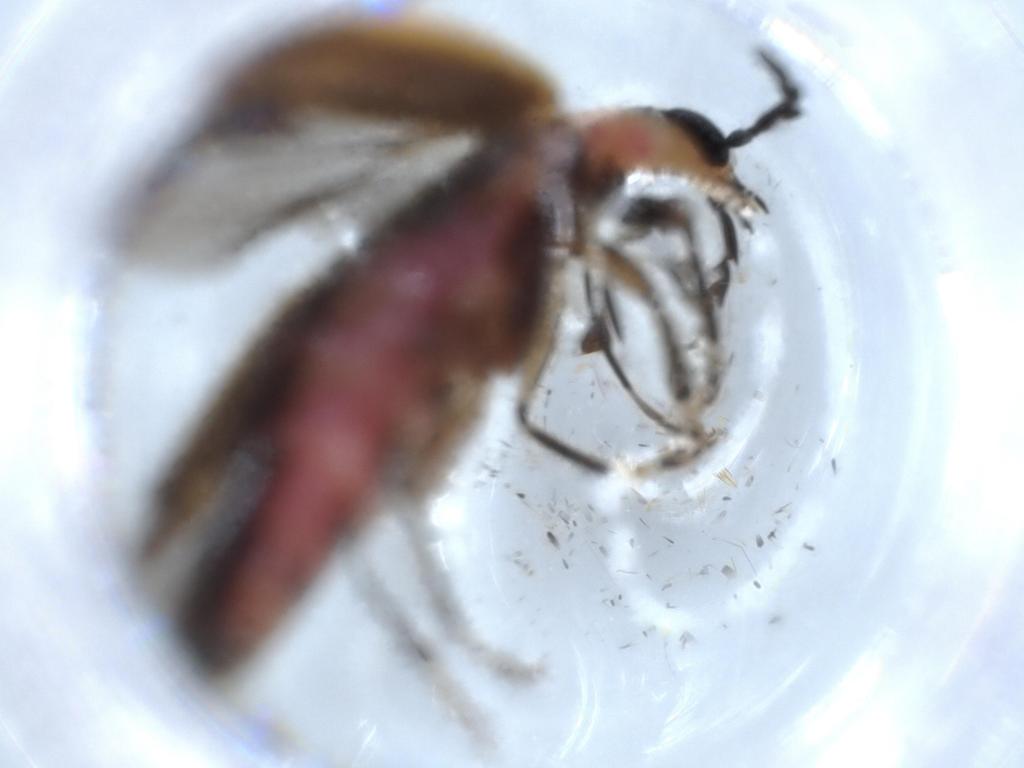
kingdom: Animalia
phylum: Arthropoda
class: Insecta
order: Coleoptera
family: Cleridae
